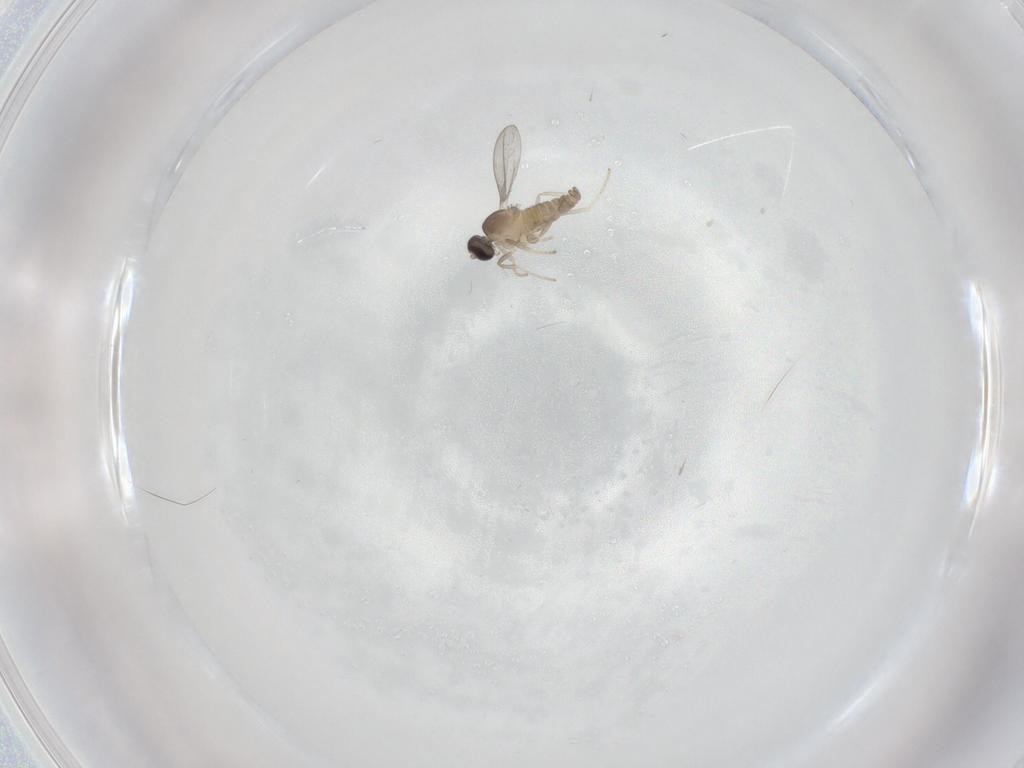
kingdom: Animalia
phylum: Arthropoda
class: Insecta
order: Diptera
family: Cecidomyiidae
